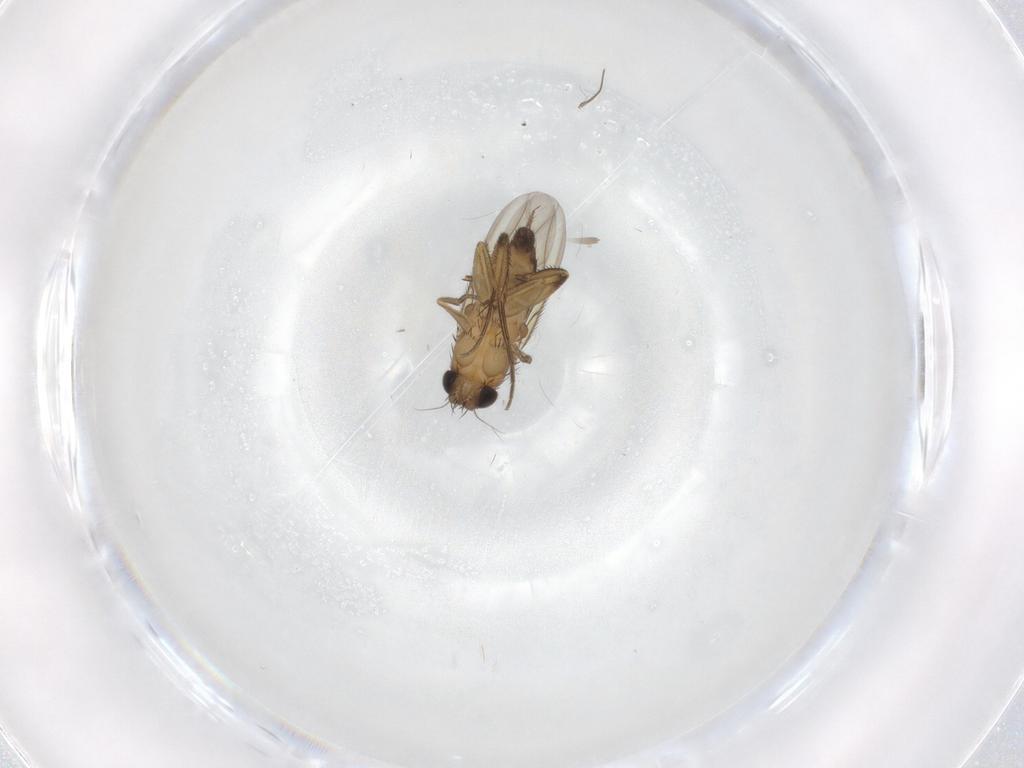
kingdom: Animalia
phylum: Arthropoda
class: Insecta
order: Diptera
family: Phoridae
